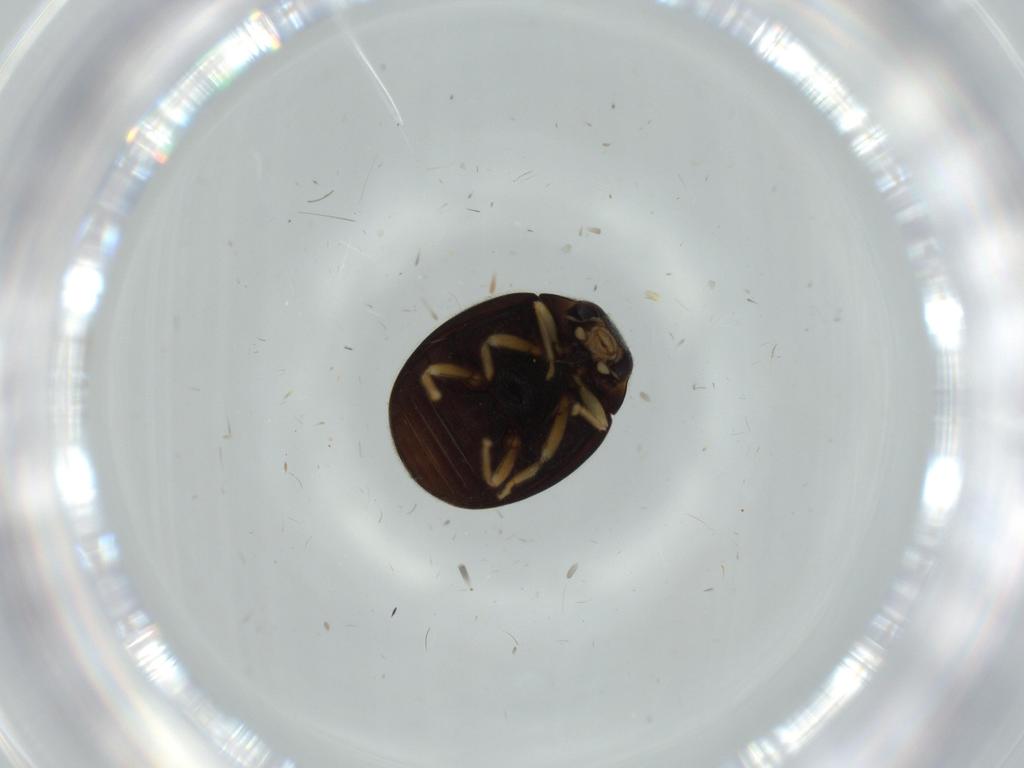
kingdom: Animalia
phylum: Arthropoda
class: Insecta
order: Coleoptera
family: Coccinellidae
